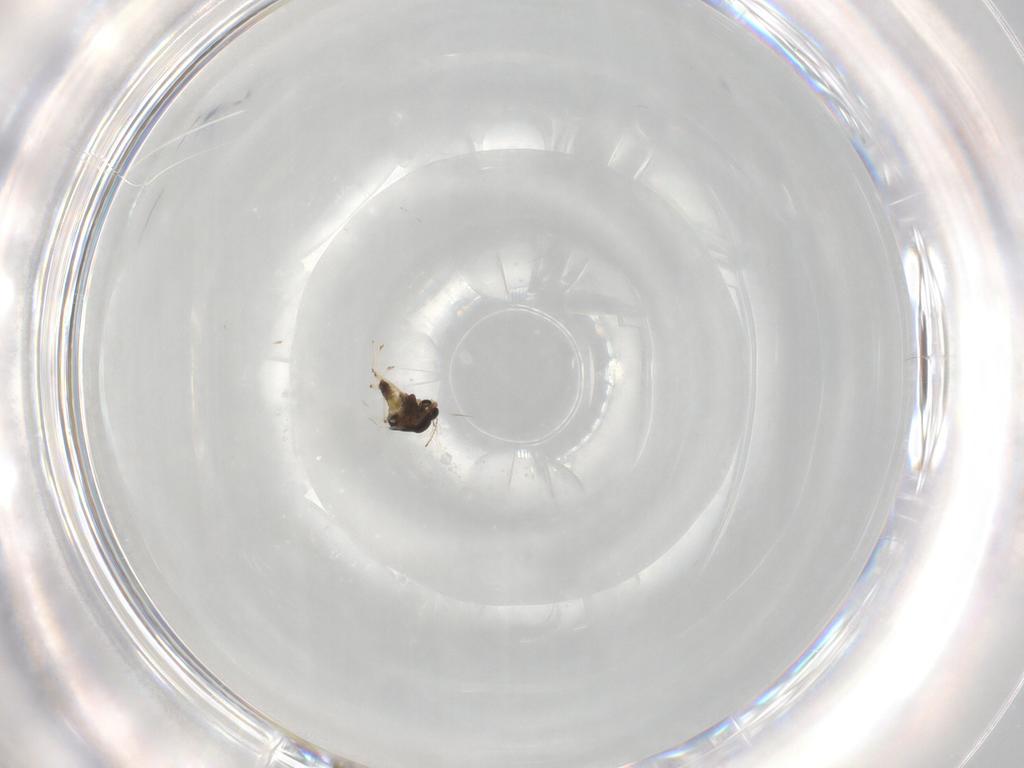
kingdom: Animalia
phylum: Arthropoda
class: Insecta
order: Diptera
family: Chironomidae
